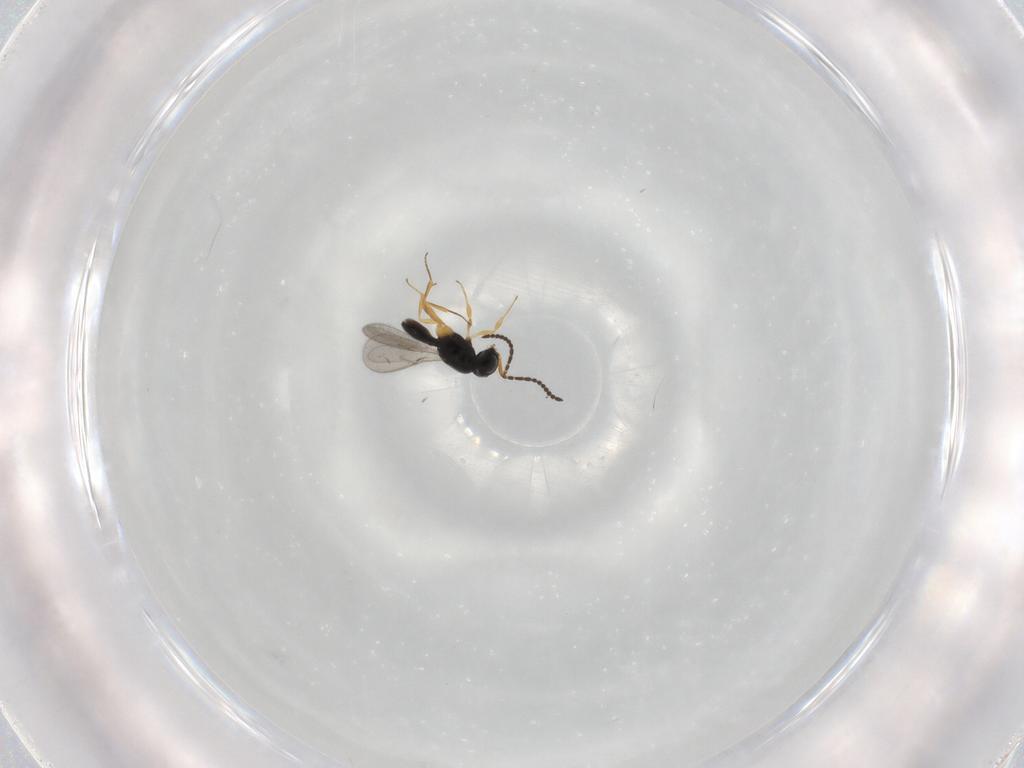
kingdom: Animalia
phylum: Arthropoda
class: Insecta
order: Hymenoptera
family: Scelionidae
